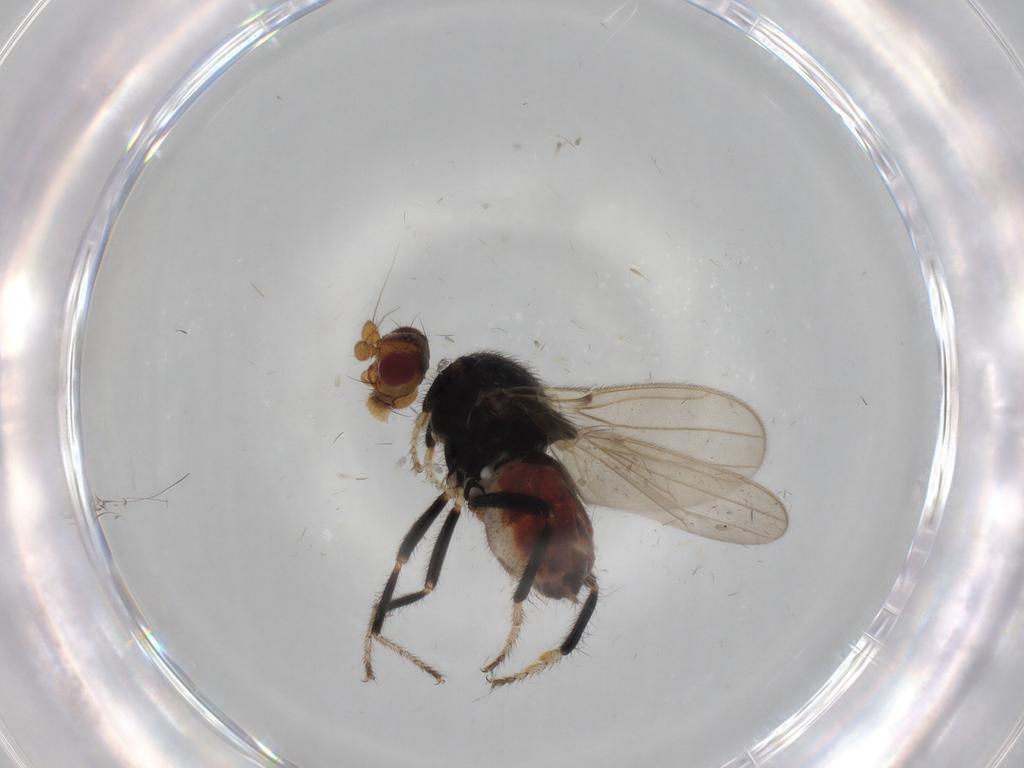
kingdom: Animalia
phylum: Arthropoda
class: Insecta
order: Diptera
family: Sphaeroceridae
